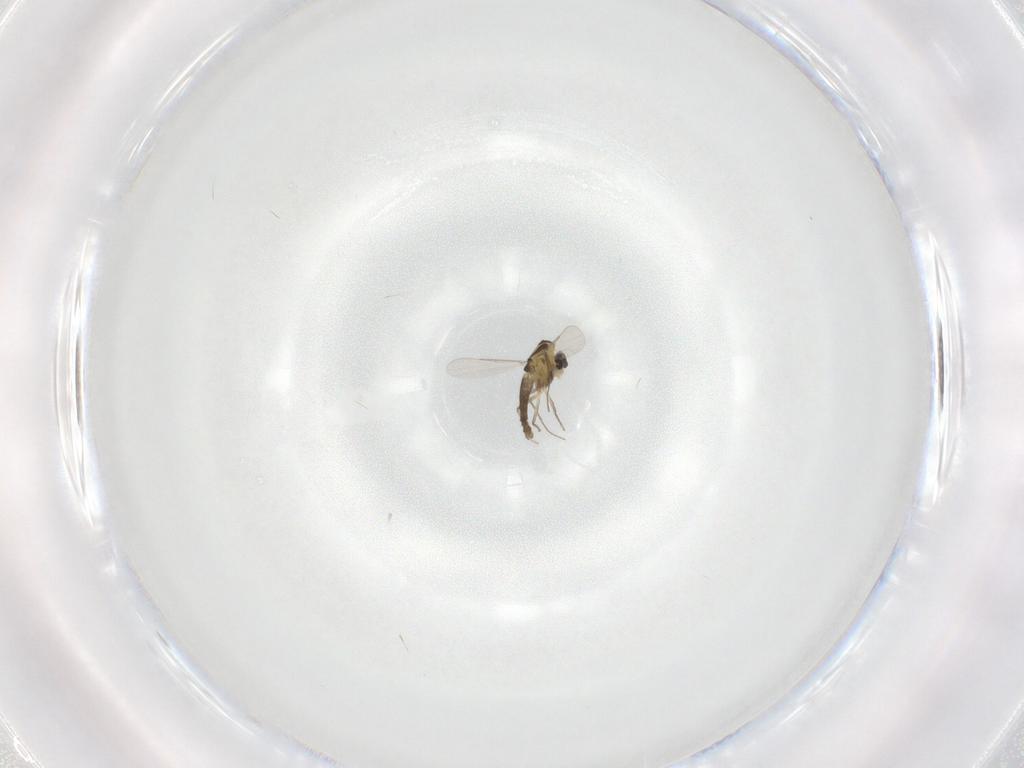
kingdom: Animalia
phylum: Arthropoda
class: Insecta
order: Diptera
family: Chironomidae
